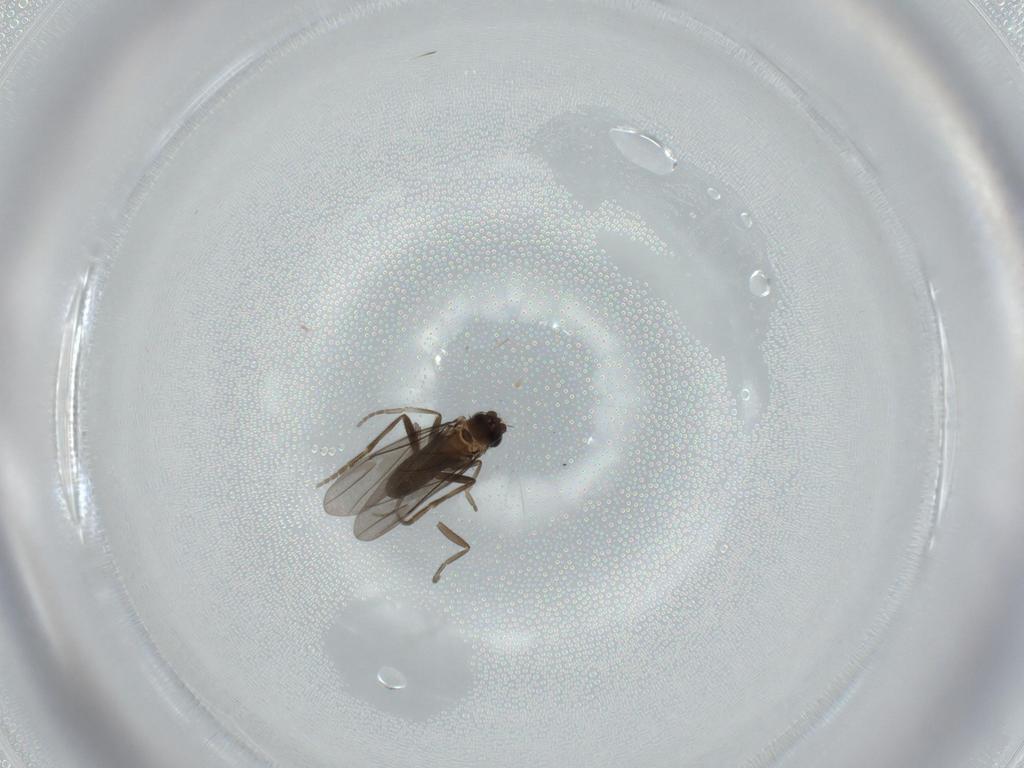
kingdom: Animalia
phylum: Arthropoda
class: Insecta
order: Diptera
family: Phoridae
